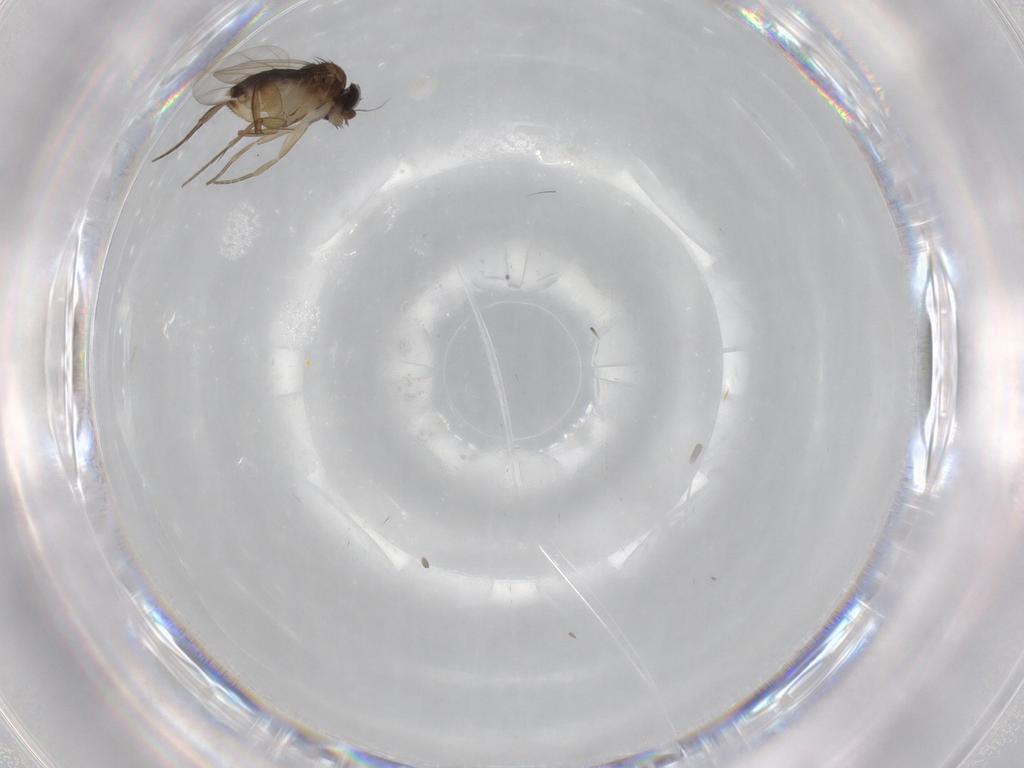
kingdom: Animalia
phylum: Arthropoda
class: Insecta
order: Diptera
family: Phoridae
